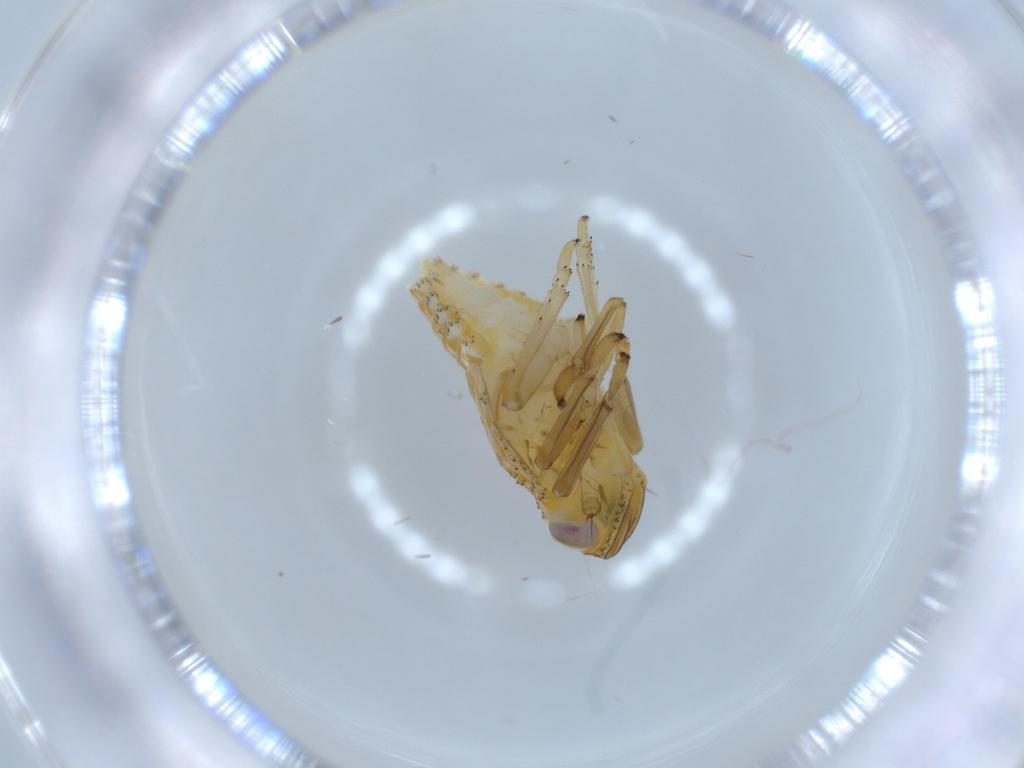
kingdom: Animalia
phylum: Arthropoda
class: Insecta
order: Hemiptera
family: Issidae
